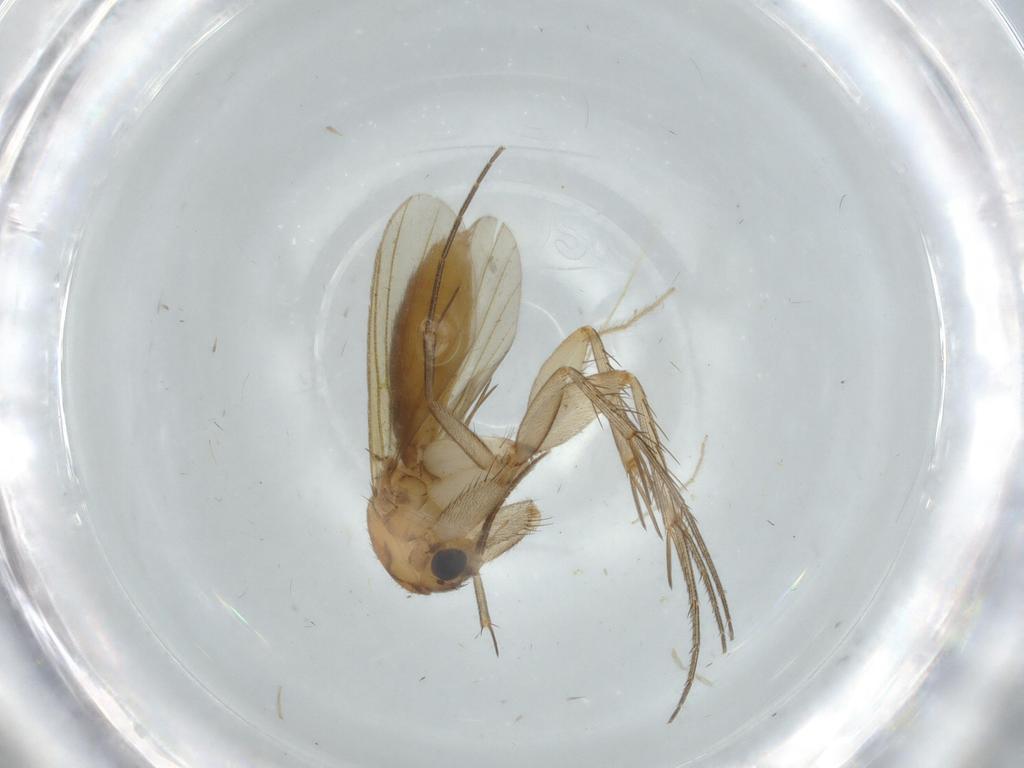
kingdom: Animalia
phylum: Arthropoda
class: Insecta
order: Diptera
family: Mycetophilidae
